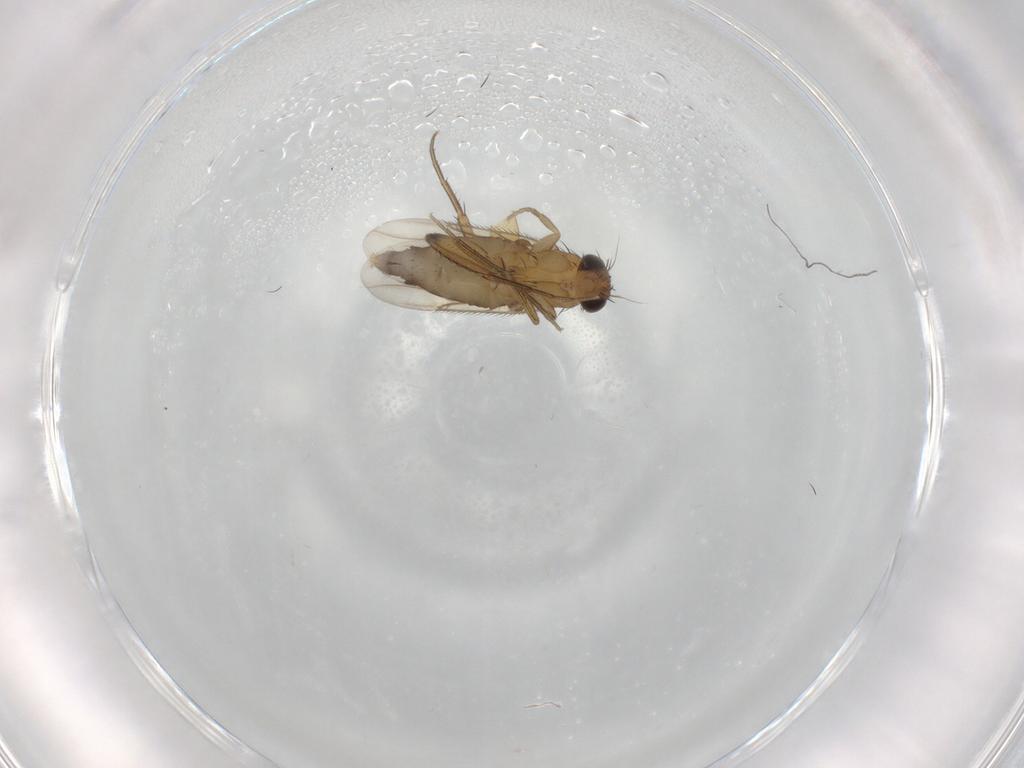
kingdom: Animalia
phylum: Arthropoda
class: Insecta
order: Diptera
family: Phoridae
